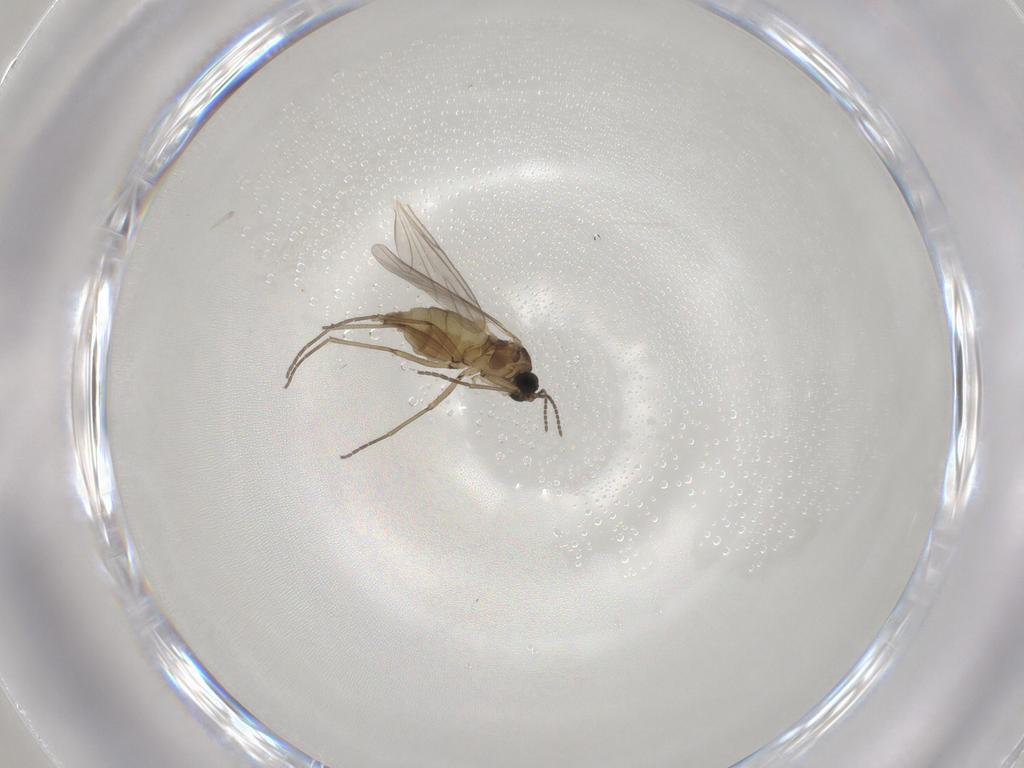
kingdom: Animalia
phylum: Arthropoda
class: Insecta
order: Diptera
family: Sciaridae
